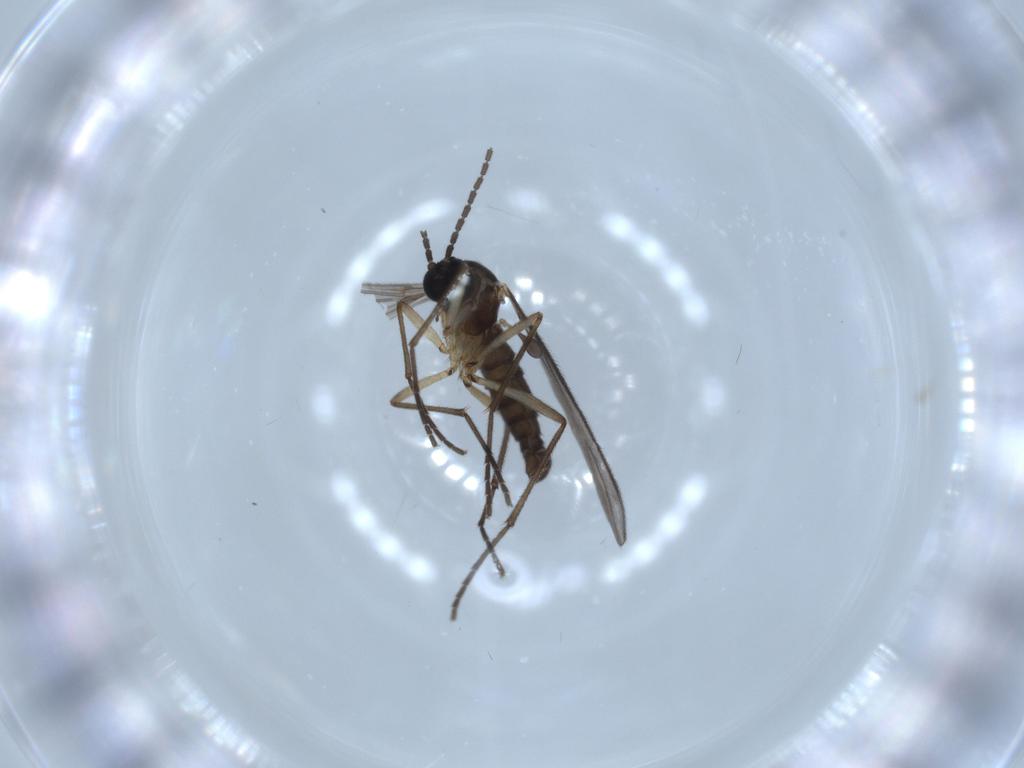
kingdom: Animalia
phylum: Arthropoda
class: Insecta
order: Diptera
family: Sciaridae
